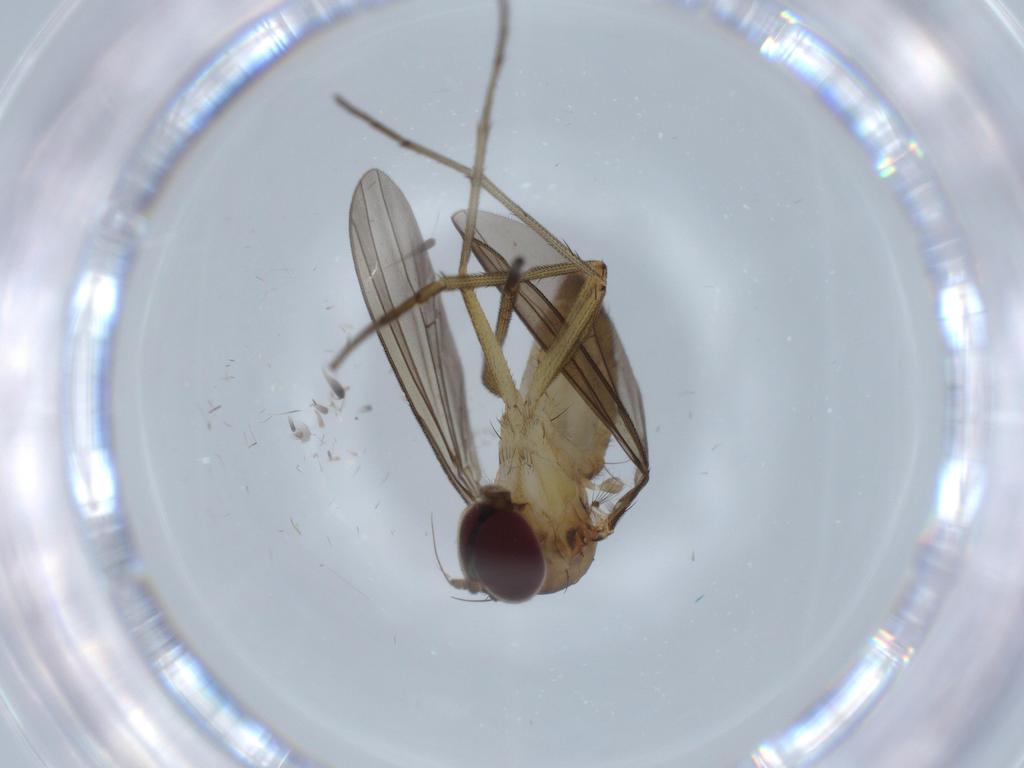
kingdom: Animalia
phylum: Arthropoda
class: Insecta
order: Diptera
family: Dolichopodidae
